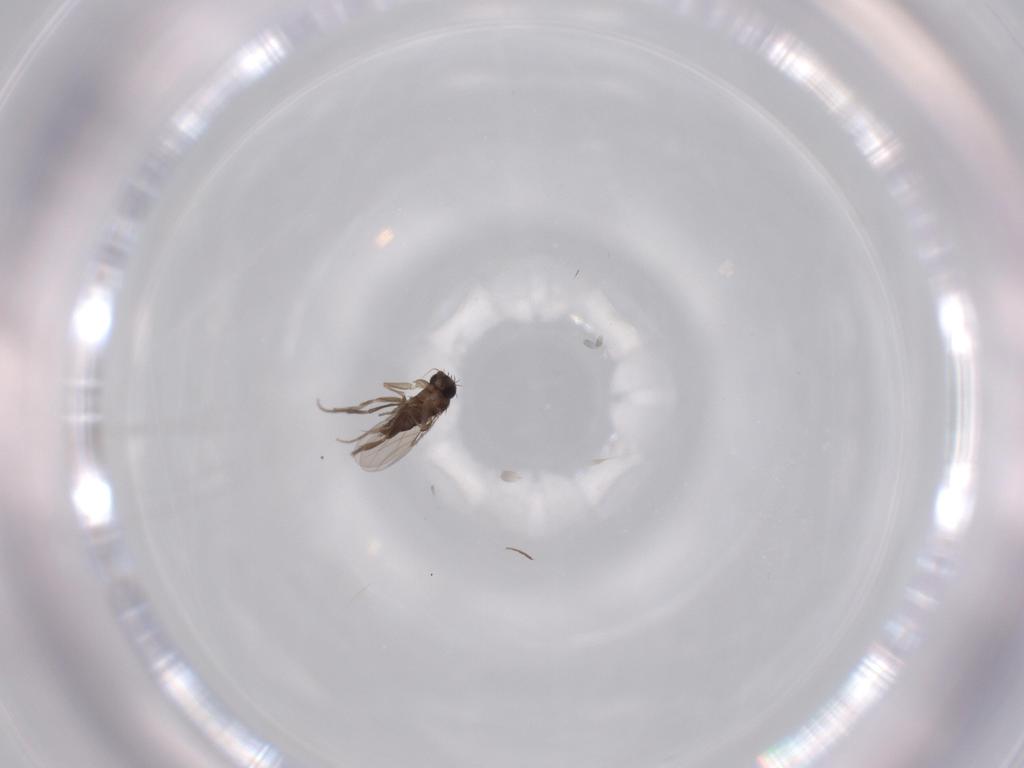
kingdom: Animalia
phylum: Arthropoda
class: Insecta
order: Diptera
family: Phoridae
